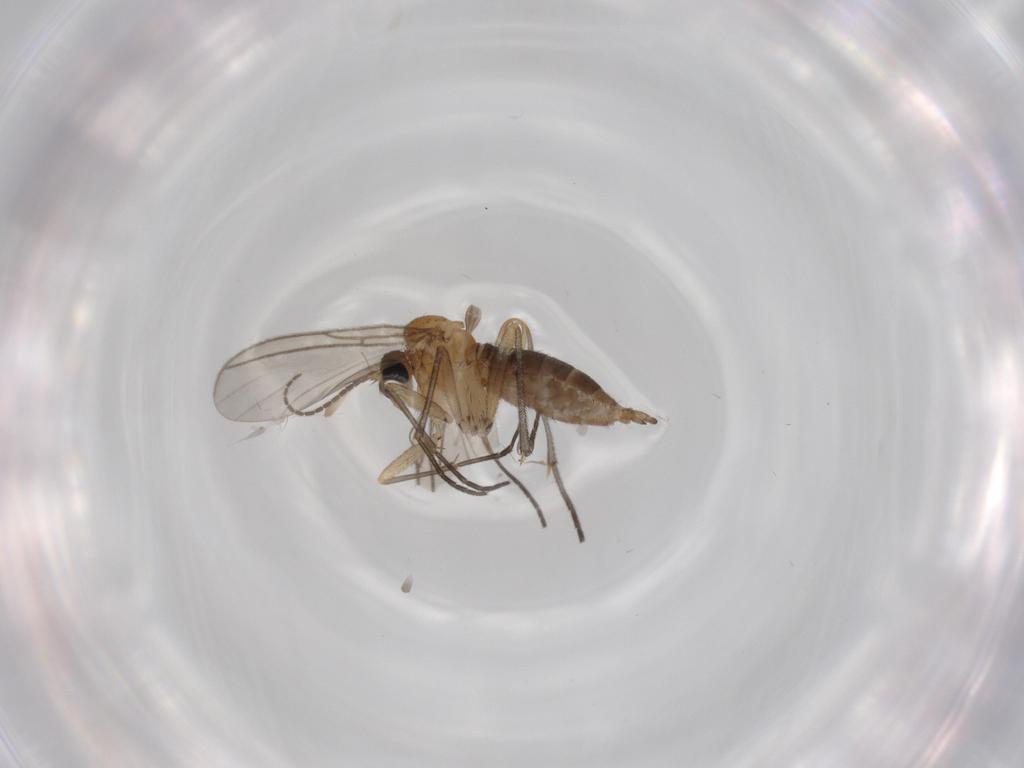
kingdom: Animalia
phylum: Arthropoda
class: Insecta
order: Diptera
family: Sciaridae
